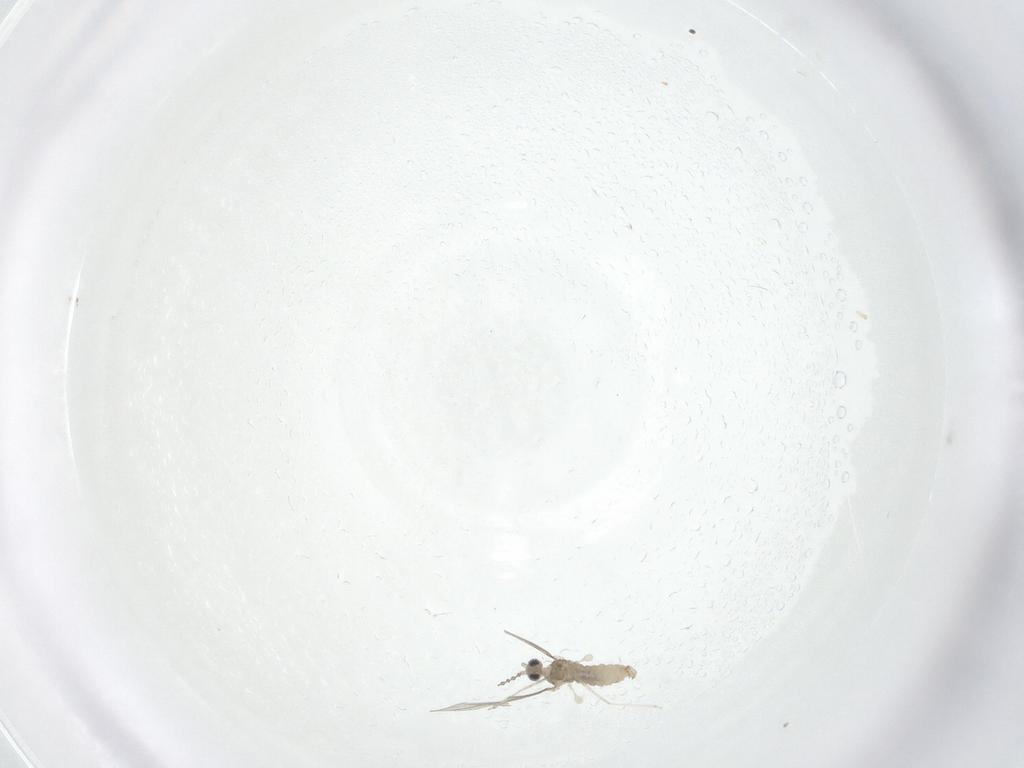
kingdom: Animalia
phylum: Arthropoda
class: Insecta
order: Diptera
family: Cecidomyiidae
